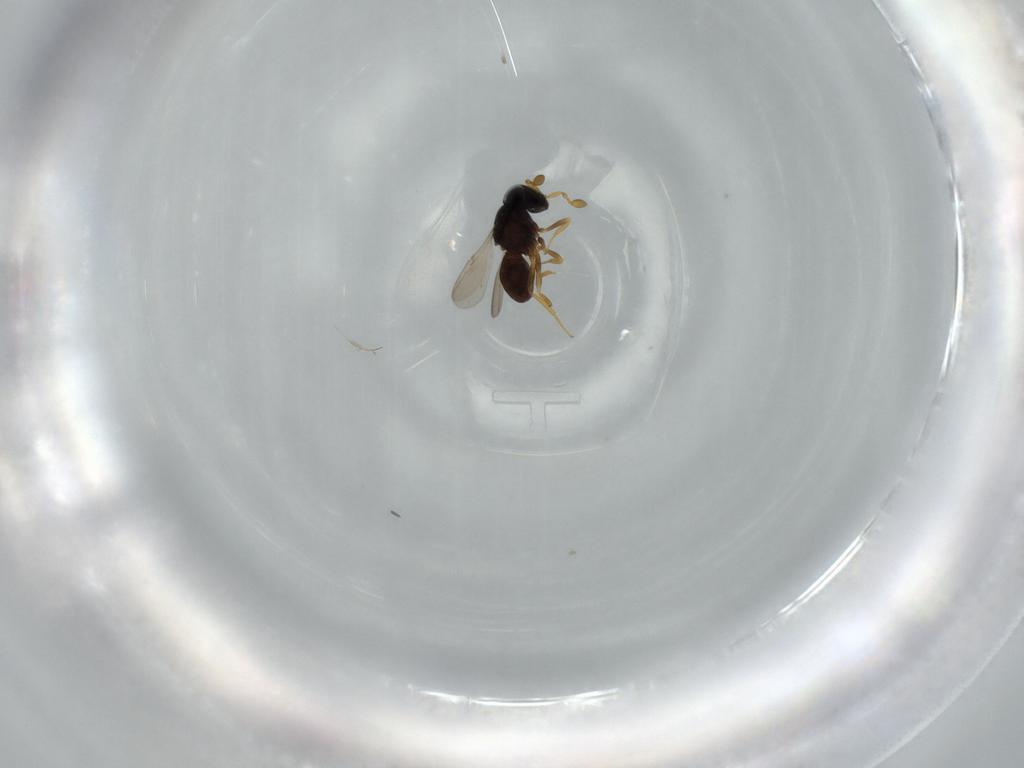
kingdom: Animalia
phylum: Arthropoda
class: Insecta
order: Hymenoptera
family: Scelionidae
